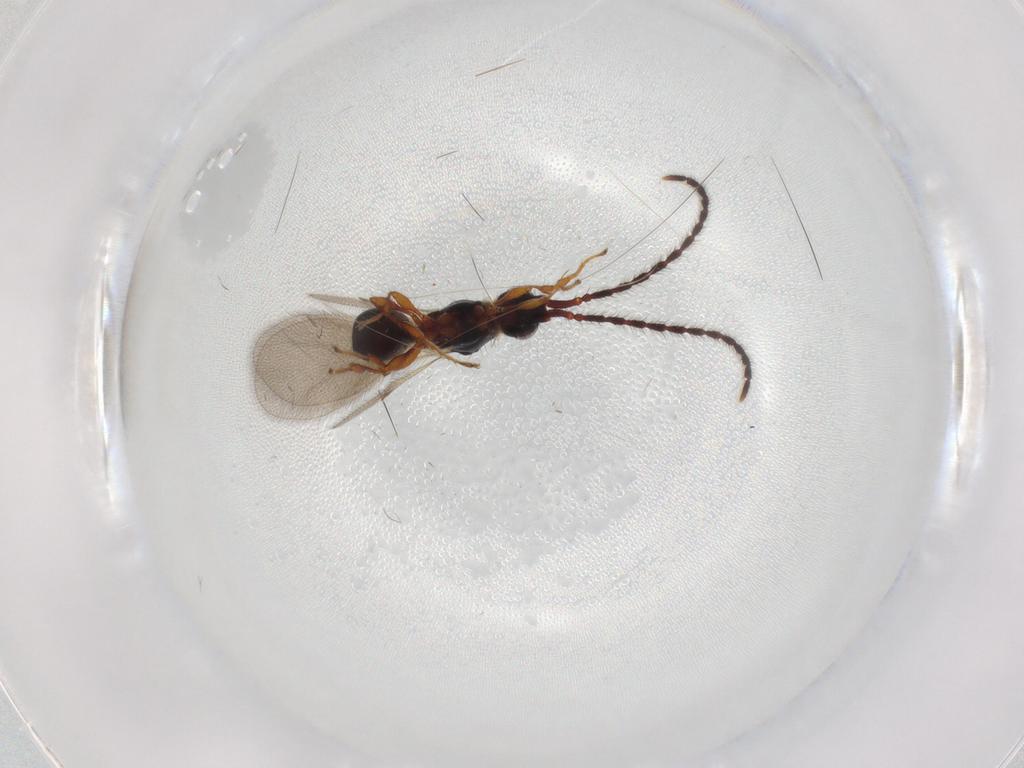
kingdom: Animalia
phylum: Arthropoda
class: Insecta
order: Hymenoptera
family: Diapriidae
